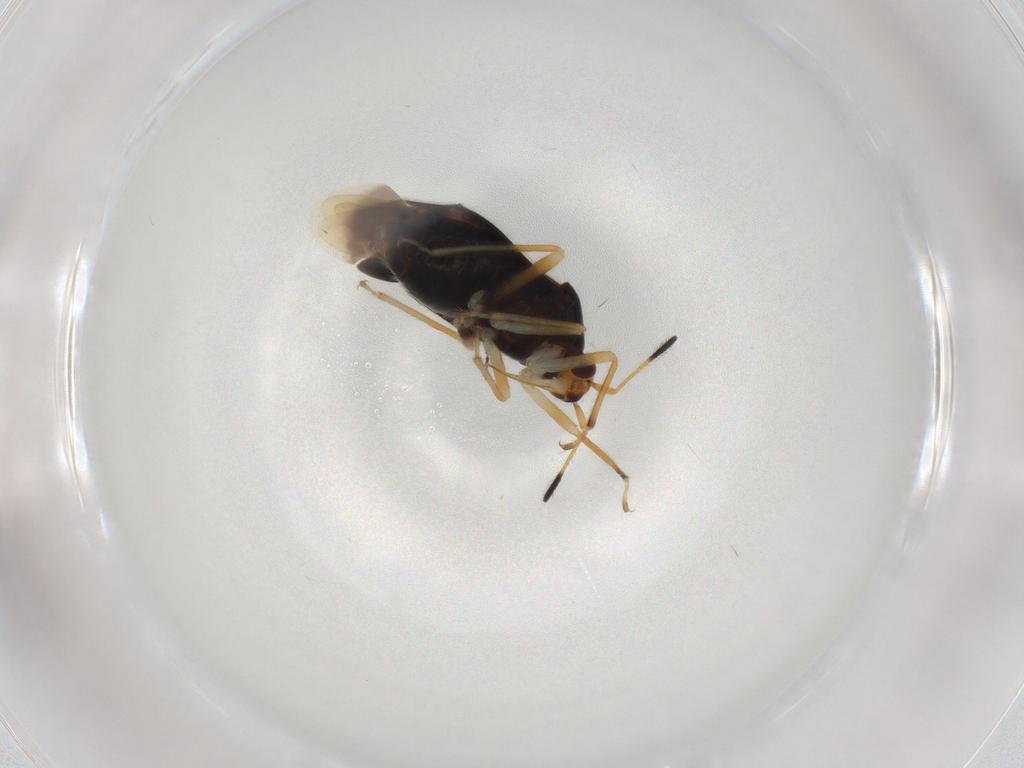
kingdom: Animalia
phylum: Arthropoda
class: Insecta
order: Hemiptera
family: Miridae
